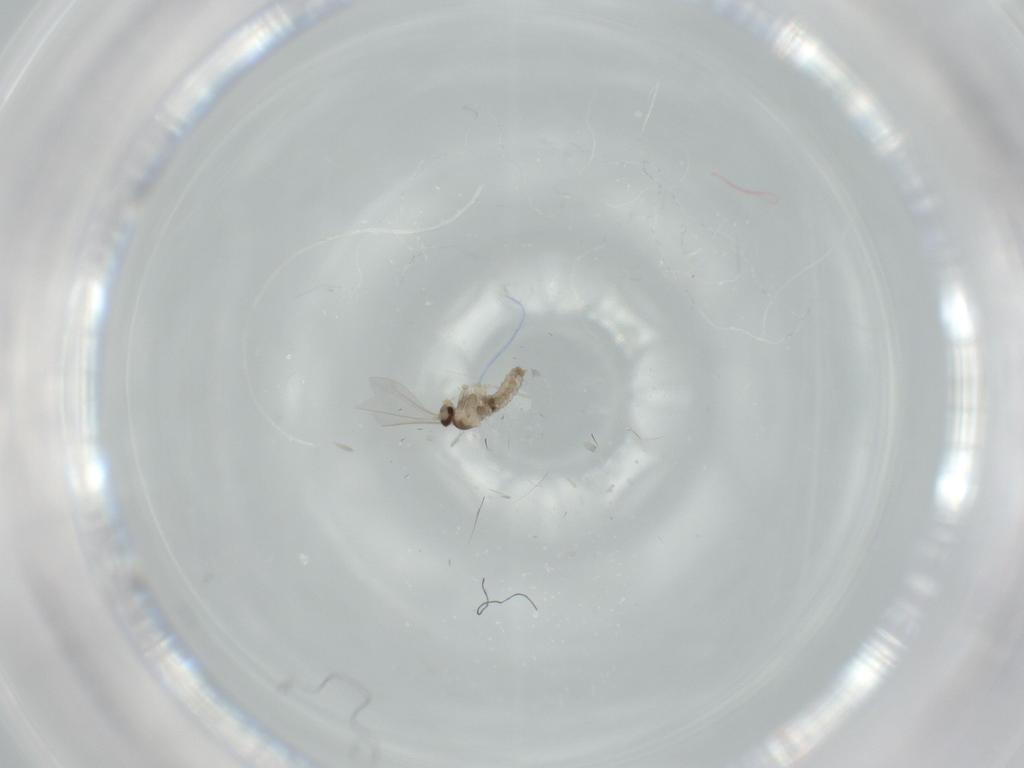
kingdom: Animalia
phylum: Arthropoda
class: Insecta
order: Diptera
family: Cecidomyiidae
